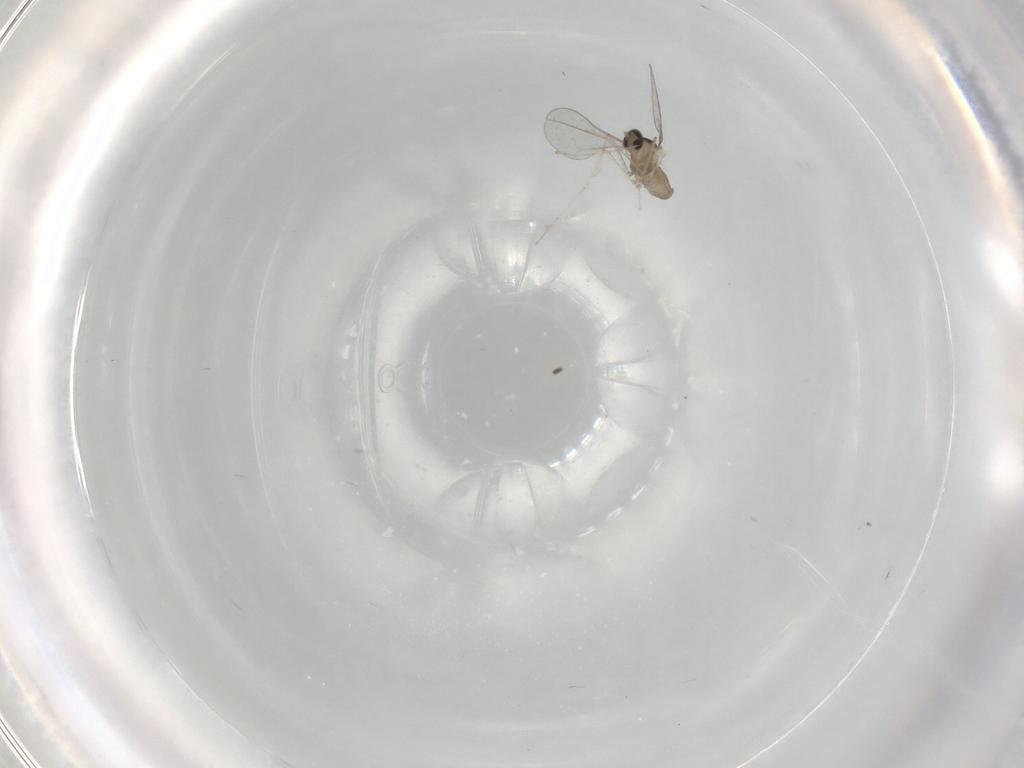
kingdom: Animalia
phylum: Arthropoda
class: Insecta
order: Diptera
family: Cecidomyiidae
